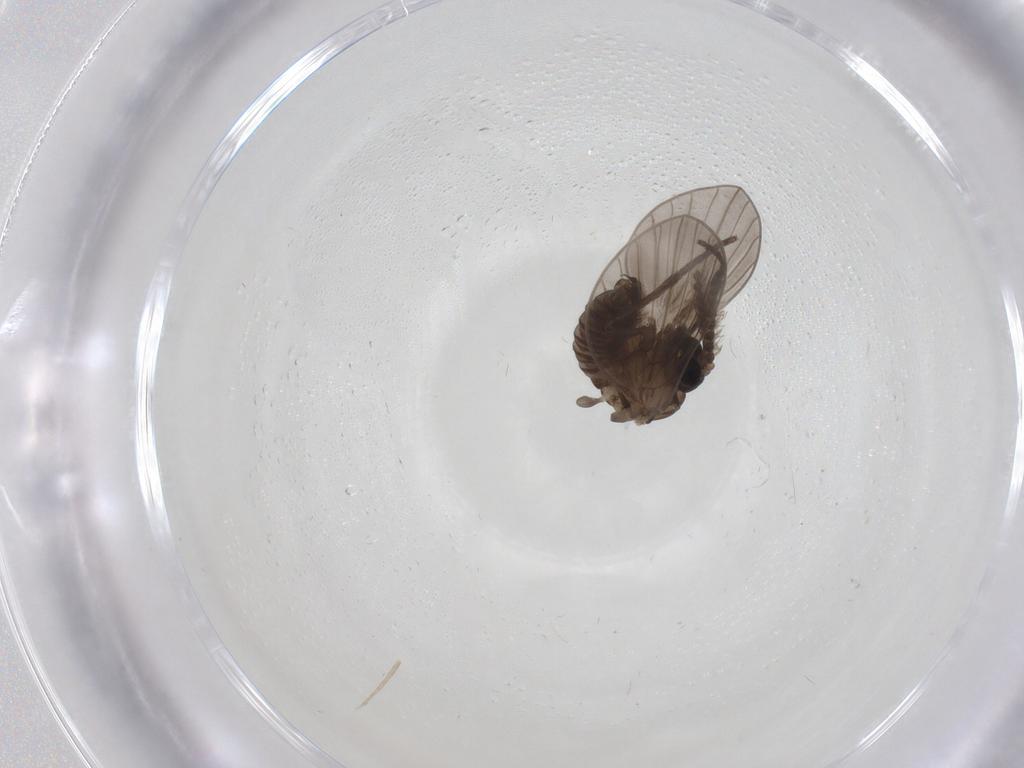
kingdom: Animalia
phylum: Arthropoda
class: Insecta
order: Diptera
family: Psychodidae
